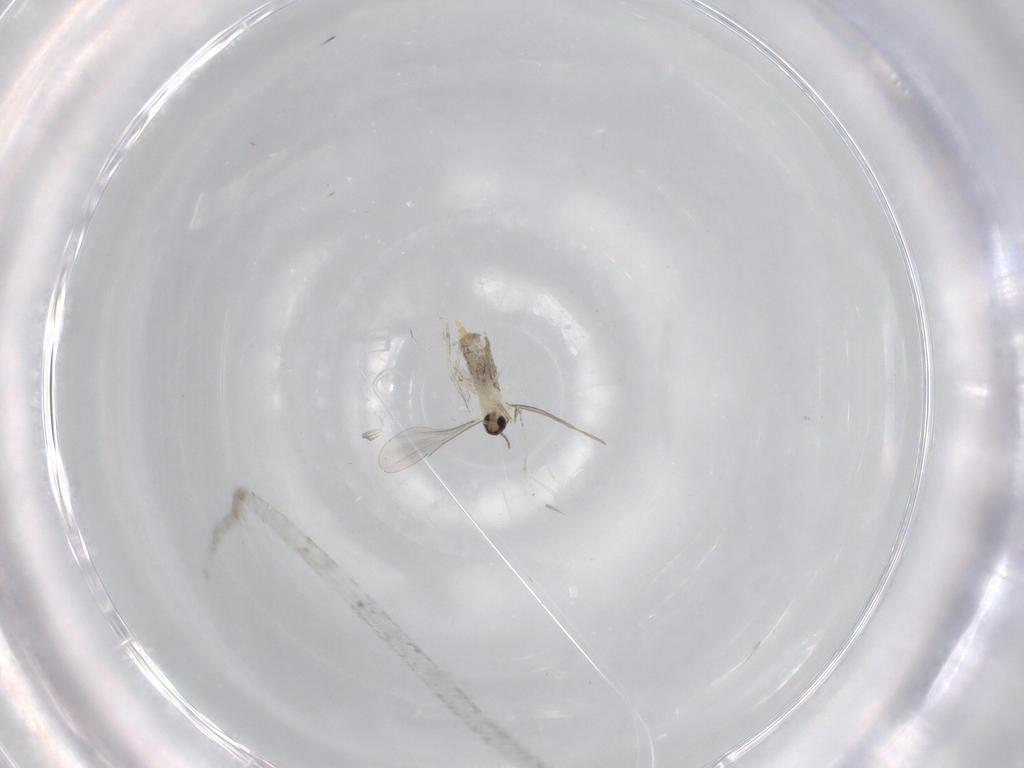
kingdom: Animalia
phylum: Arthropoda
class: Insecta
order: Diptera
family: Cecidomyiidae
